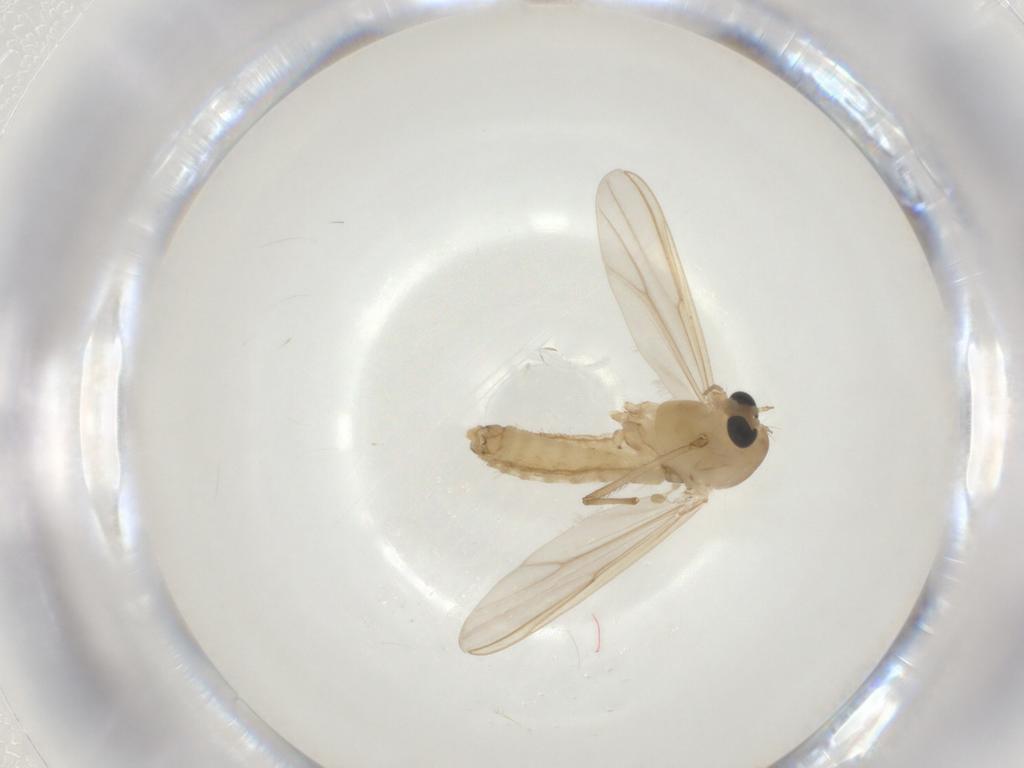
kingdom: Animalia
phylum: Arthropoda
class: Insecta
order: Diptera
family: Chironomidae
